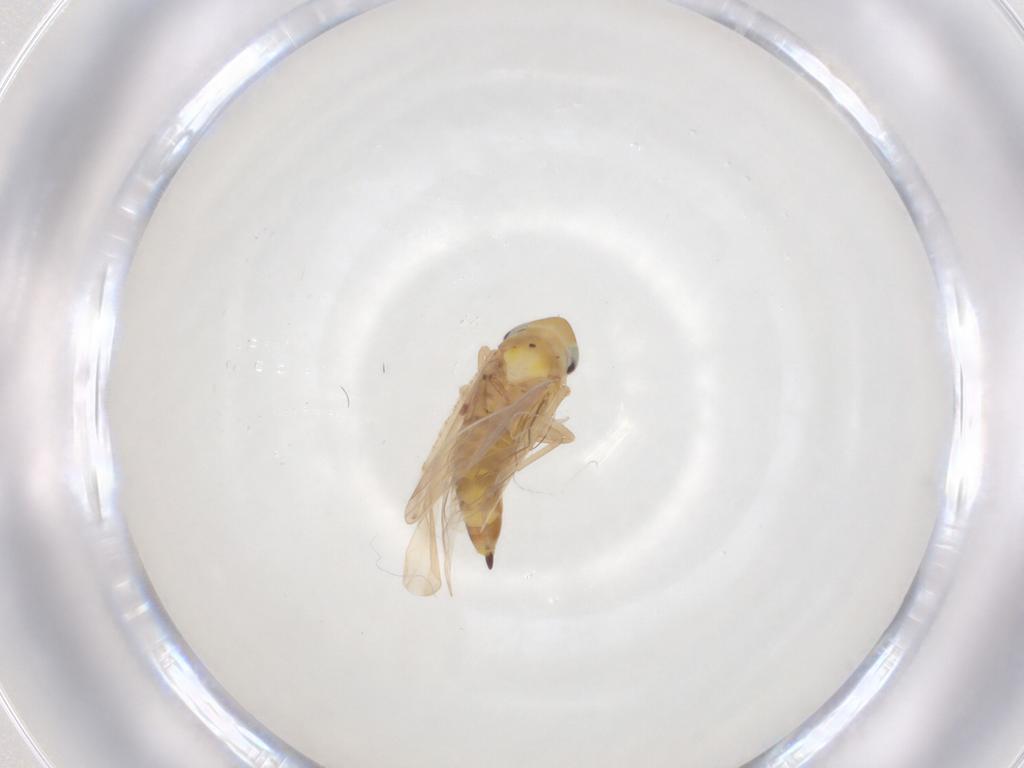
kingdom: Animalia
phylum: Arthropoda
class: Insecta
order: Hemiptera
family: Cicadellidae
